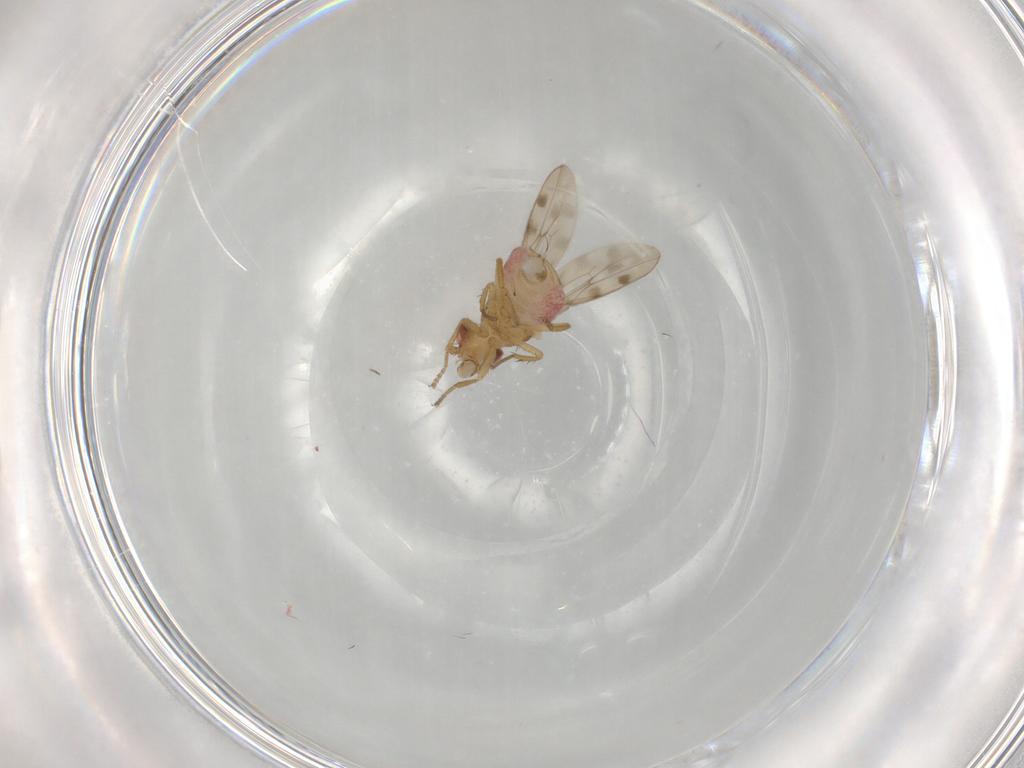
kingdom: Animalia
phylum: Arthropoda
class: Insecta
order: Diptera
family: Sphaeroceridae
